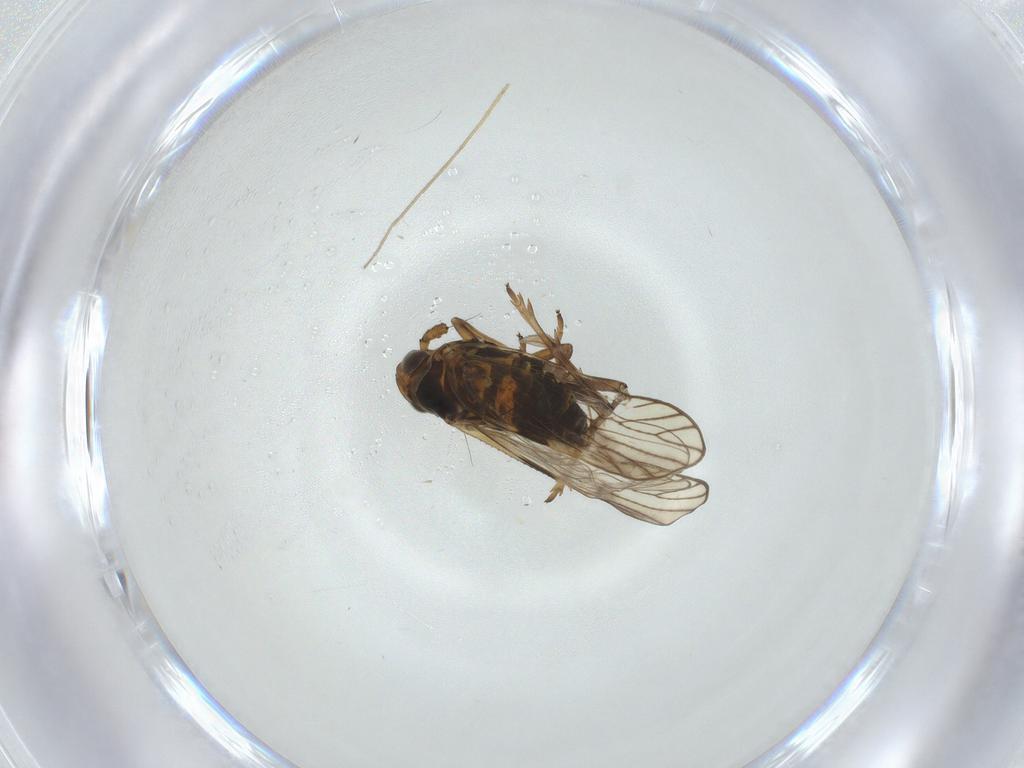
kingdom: Animalia
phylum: Arthropoda
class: Insecta
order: Hemiptera
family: Delphacidae
